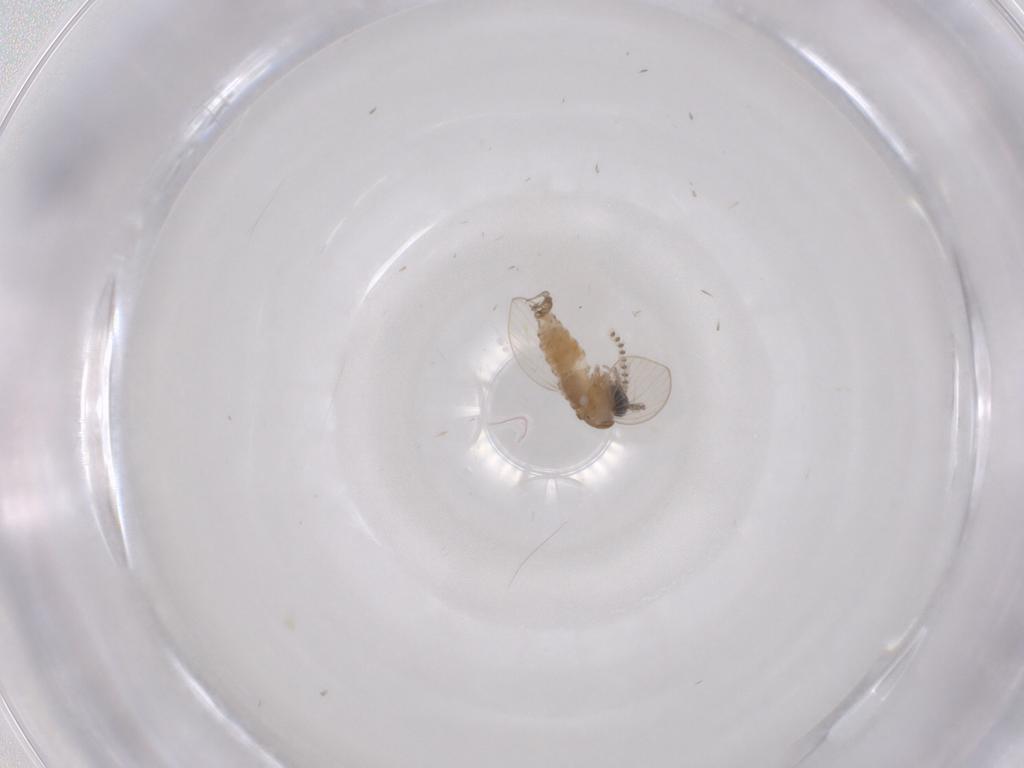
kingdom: Animalia
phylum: Arthropoda
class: Insecta
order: Diptera
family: Psychodidae
